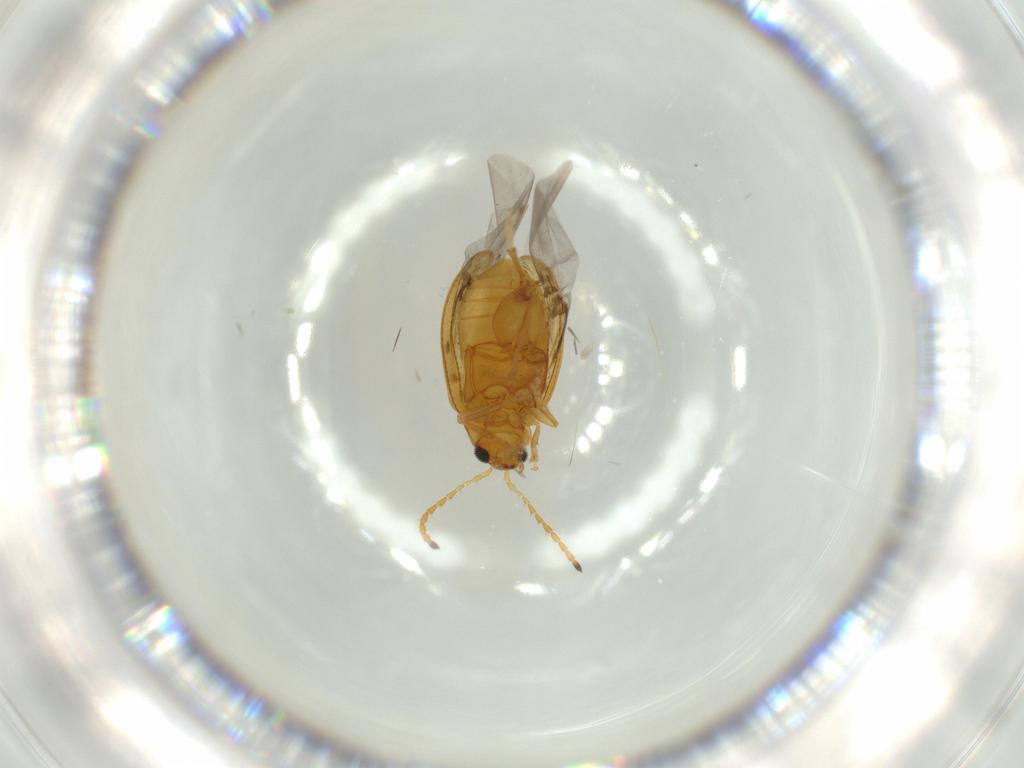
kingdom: Animalia
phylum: Arthropoda
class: Insecta
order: Coleoptera
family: Chrysomelidae
